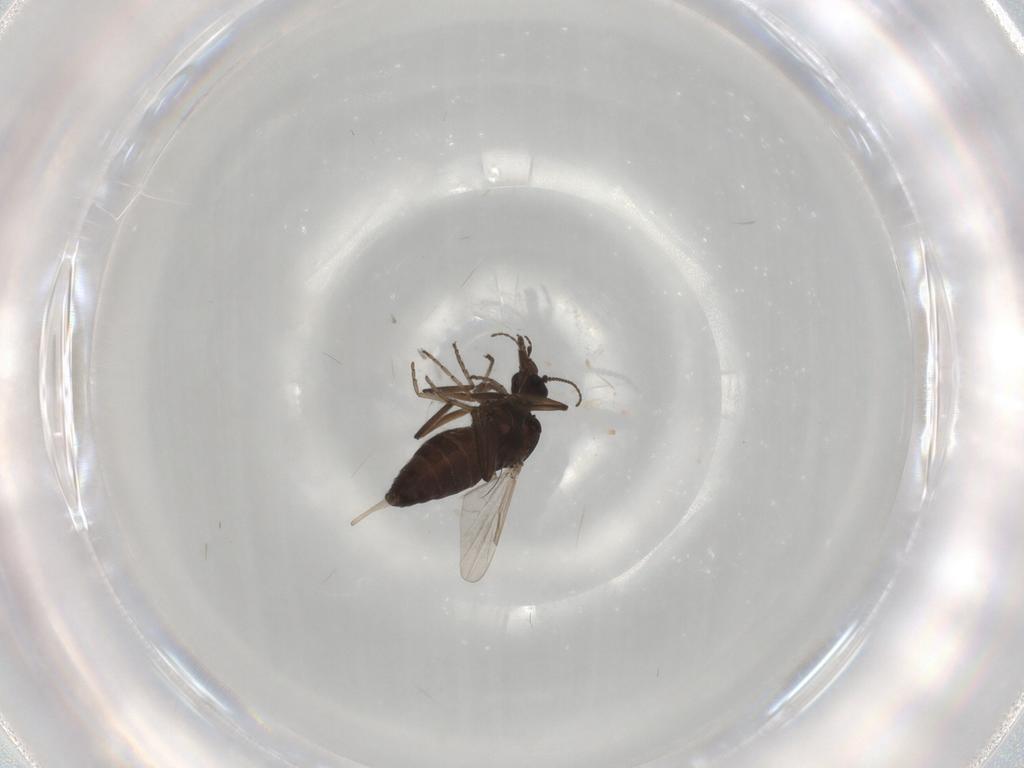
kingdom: Animalia
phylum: Arthropoda
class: Insecta
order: Diptera
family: Ceratopogonidae
